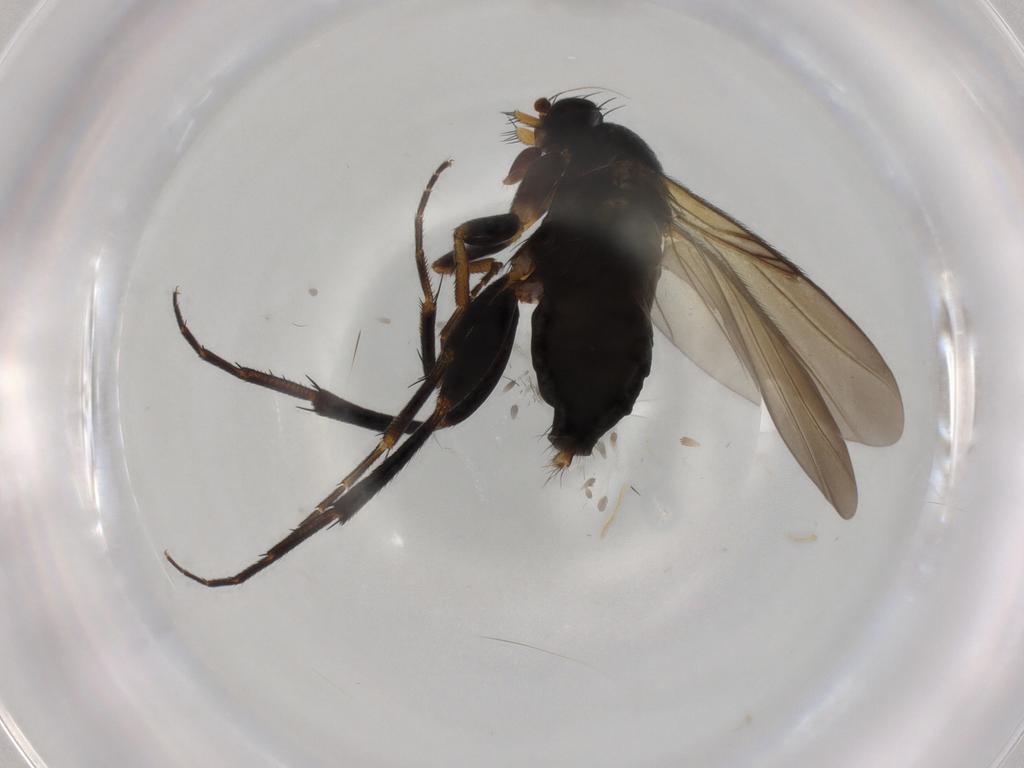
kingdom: Animalia
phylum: Arthropoda
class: Insecta
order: Diptera
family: Phoridae
